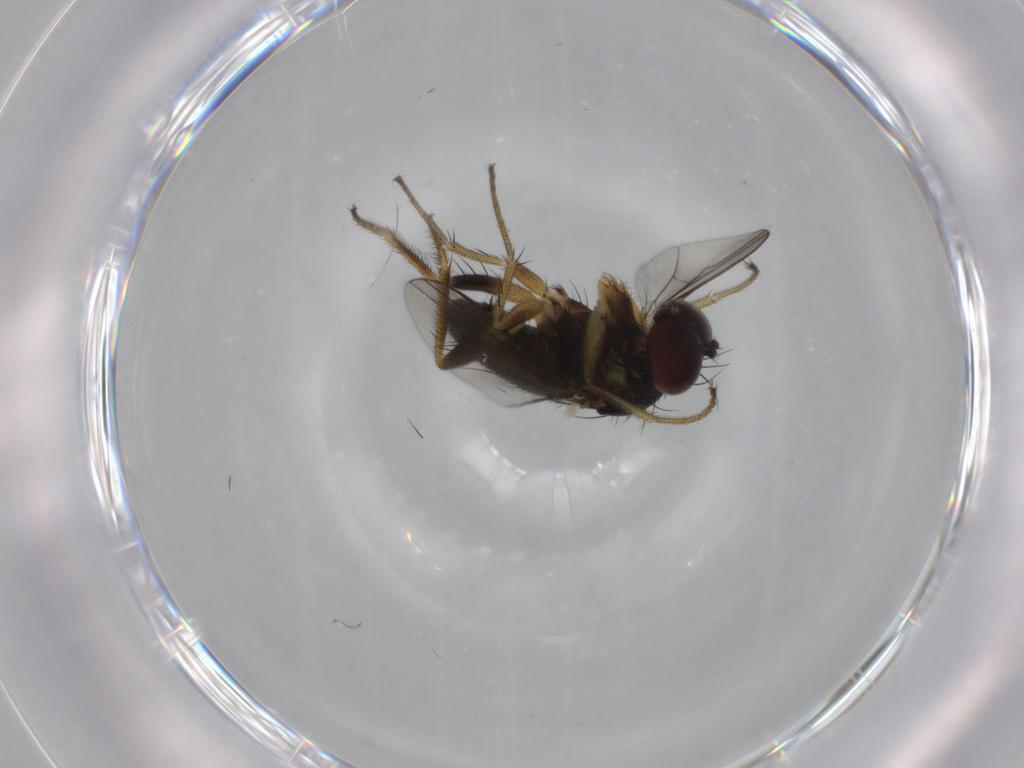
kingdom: Animalia
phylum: Arthropoda
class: Insecta
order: Diptera
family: Dolichopodidae
